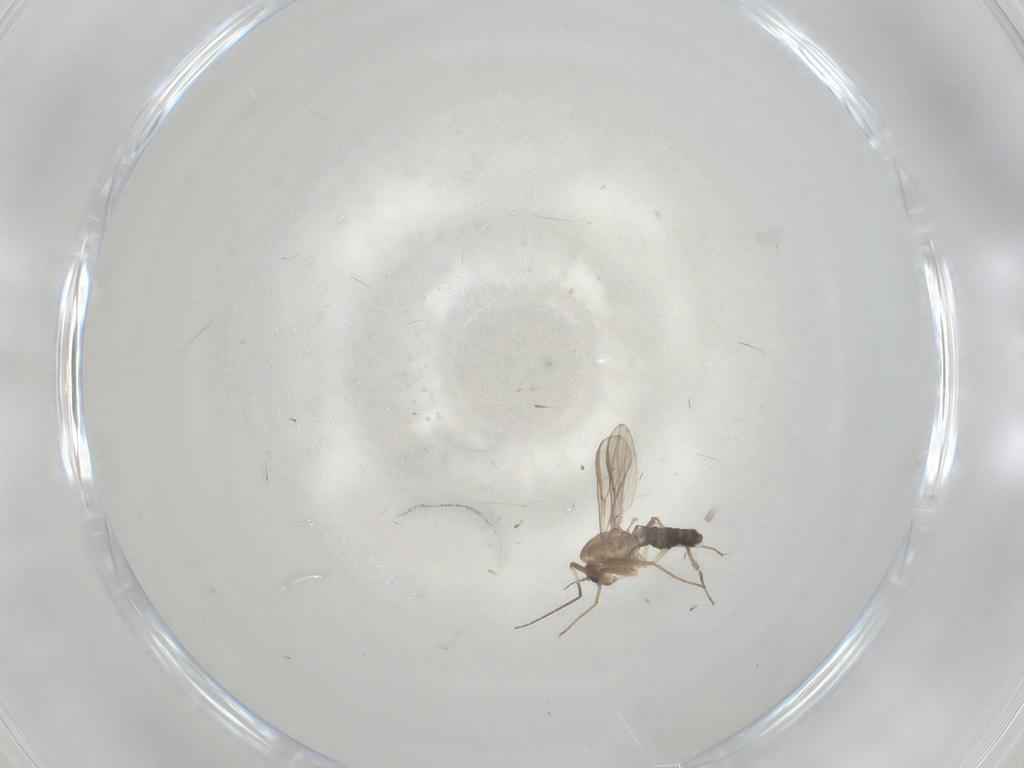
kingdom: Animalia
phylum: Arthropoda
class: Insecta
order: Diptera
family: Chironomidae
